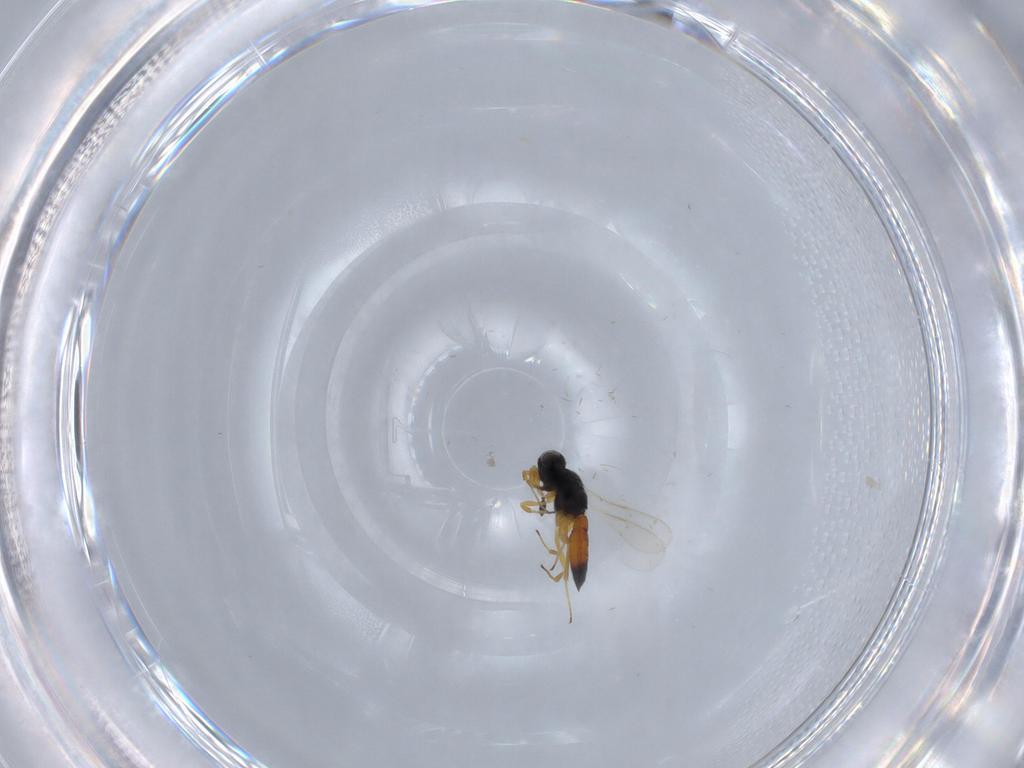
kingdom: Animalia
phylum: Arthropoda
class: Insecta
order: Hymenoptera
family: Scelionidae
